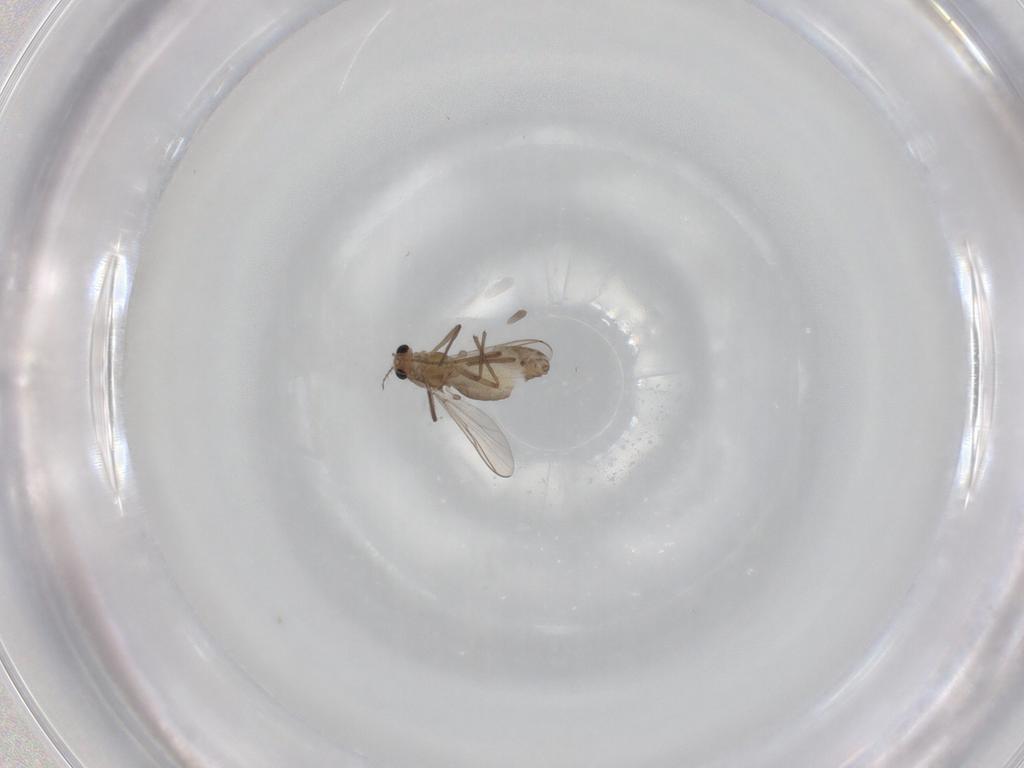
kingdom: Animalia
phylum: Arthropoda
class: Insecta
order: Diptera
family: Chironomidae
